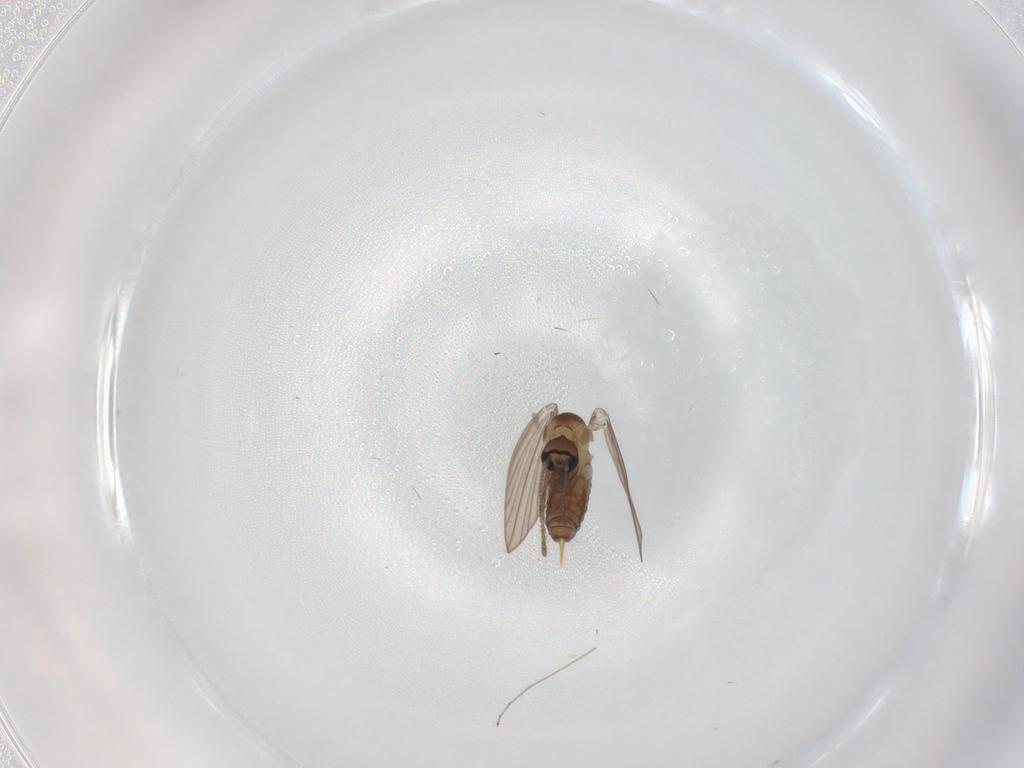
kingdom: Animalia
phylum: Arthropoda
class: Insecta
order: Diptera
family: Psychodidae
